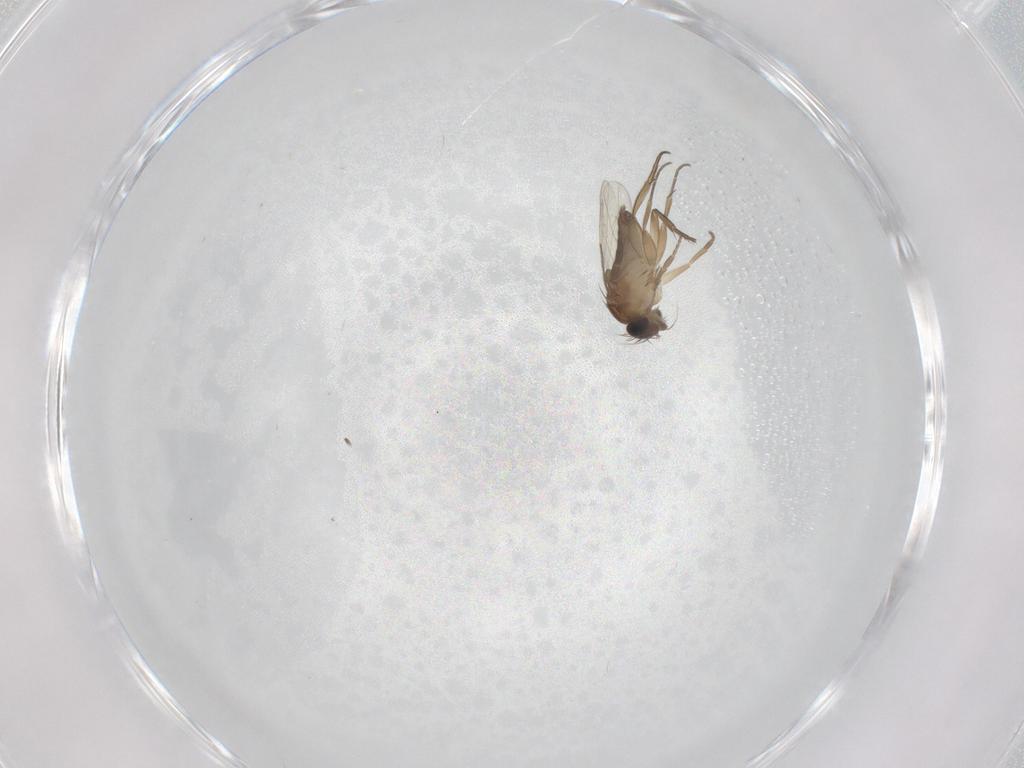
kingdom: Animalia
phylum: Arthropoda
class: Insecta
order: Diptera
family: Phoridae
